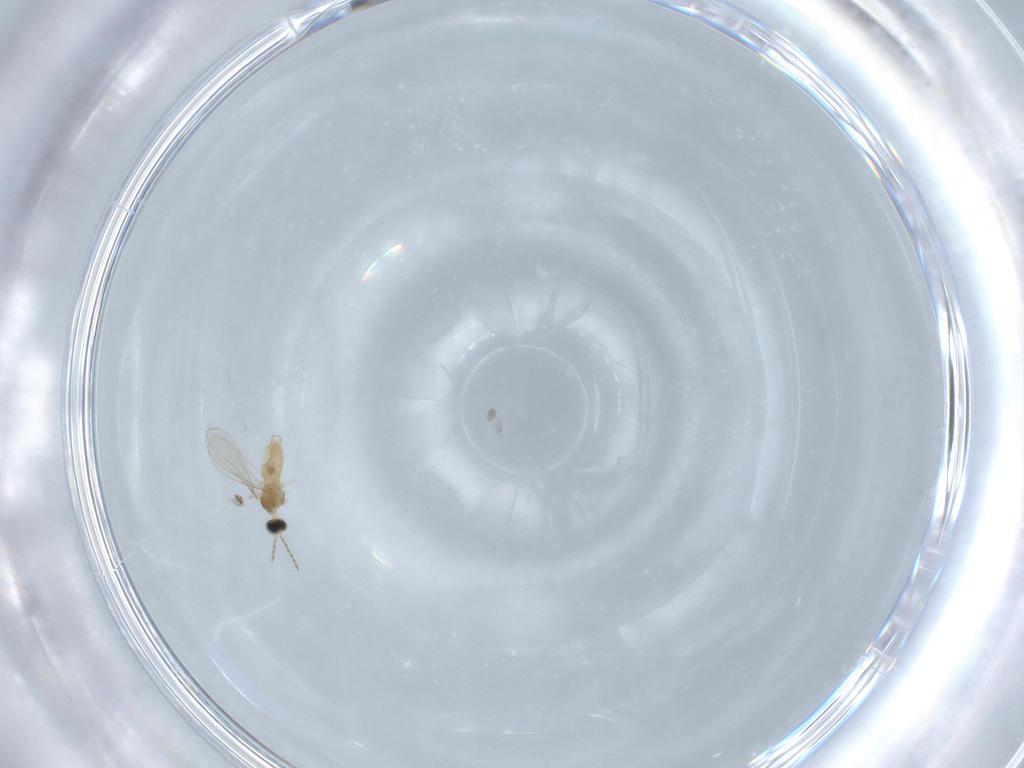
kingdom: Animalia
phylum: Arthropoda
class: Insecta
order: Diptera
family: Cecidomyiidae
